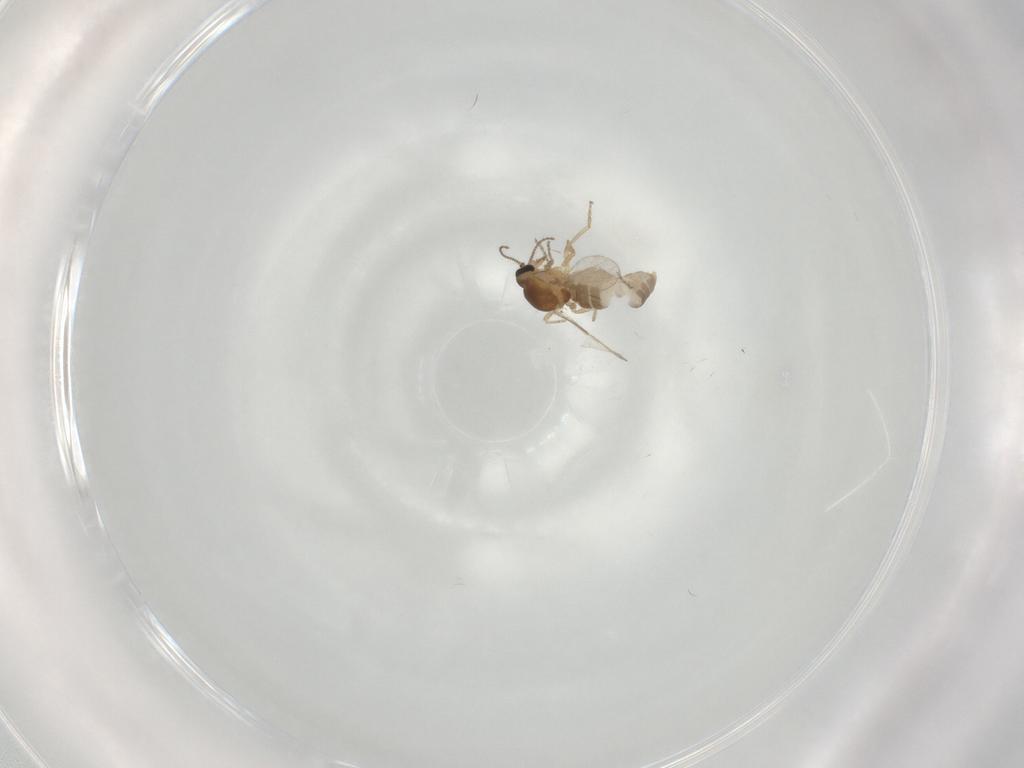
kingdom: Animalia
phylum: Arthropoda
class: Insecta
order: Diptera
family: Ceratopogonidae
